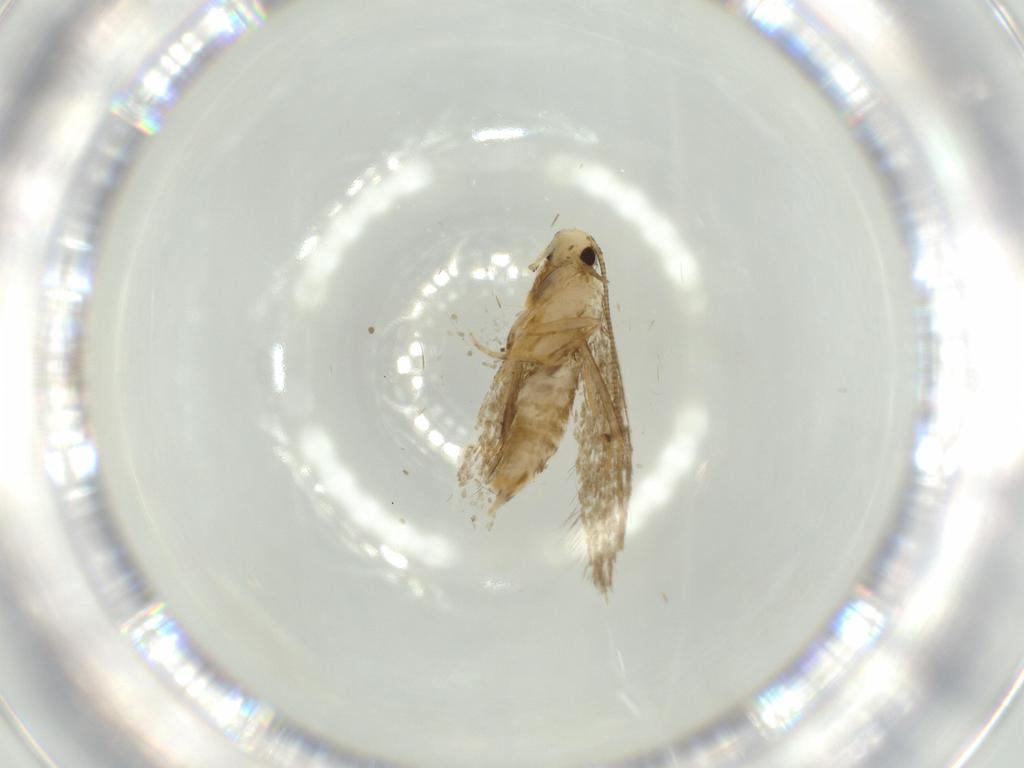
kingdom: Animalia
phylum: Arthropoda
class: Insecta
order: Lepidoptera
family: Tineidae
